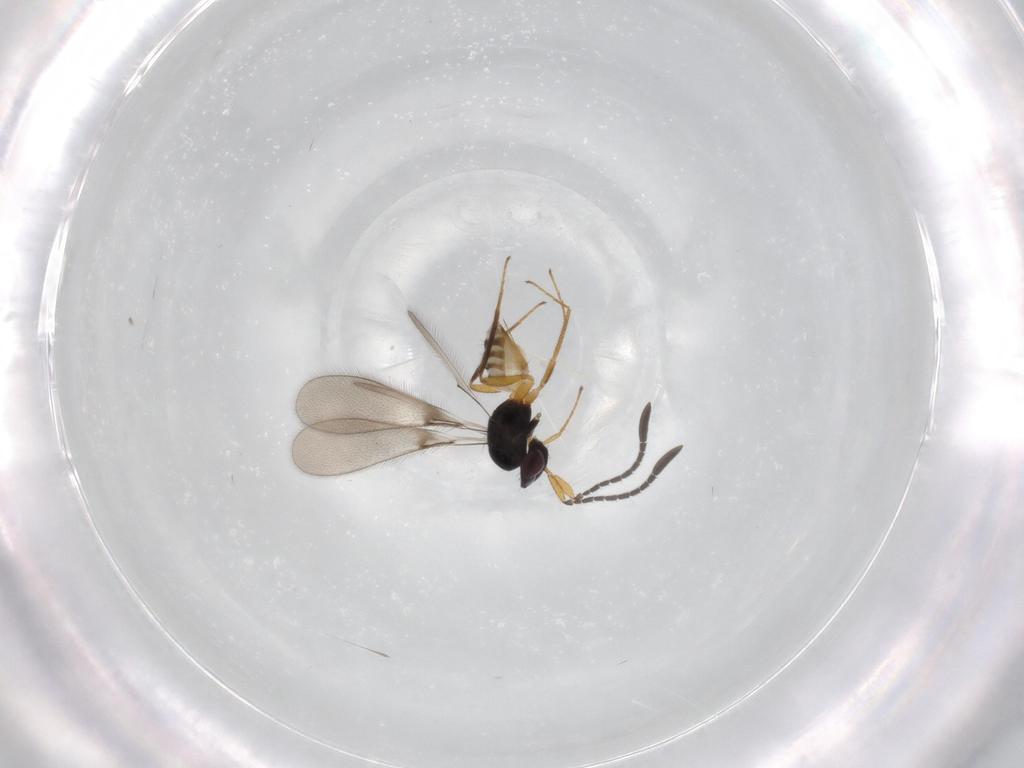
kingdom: Animalia
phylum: Arthropoda
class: Insecta
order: Hymenoptera
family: Mymaridae
